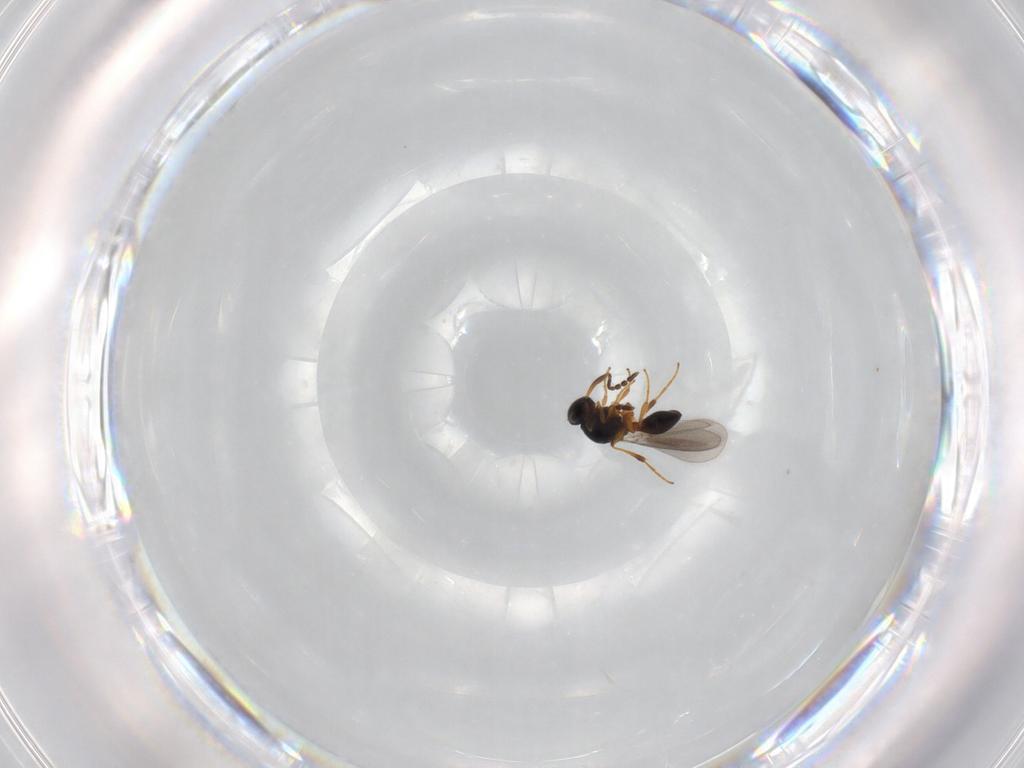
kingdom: Animalia
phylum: Arthropoda
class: Insecta
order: Hymenoptera
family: Platygastridae
